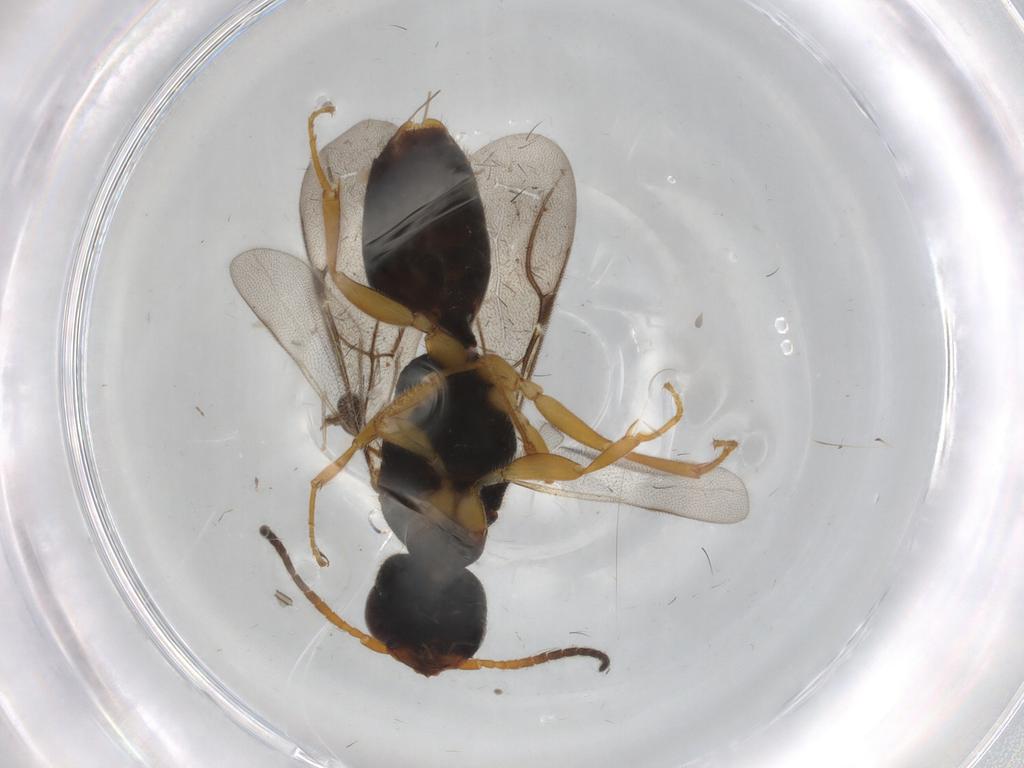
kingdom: Animalia
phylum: Arthropoda
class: Insecta
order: Hymenoptera
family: Bethylidae
